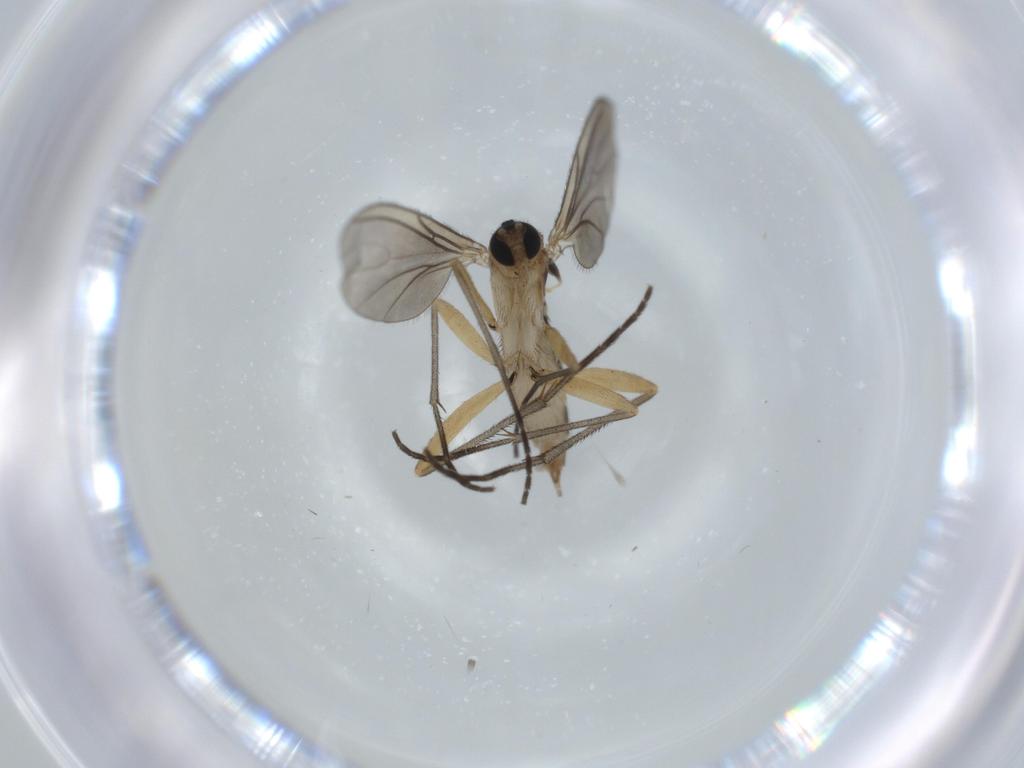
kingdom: Animalia
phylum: Arthropoda
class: Insecta
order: Diptera
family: Sciaridae
